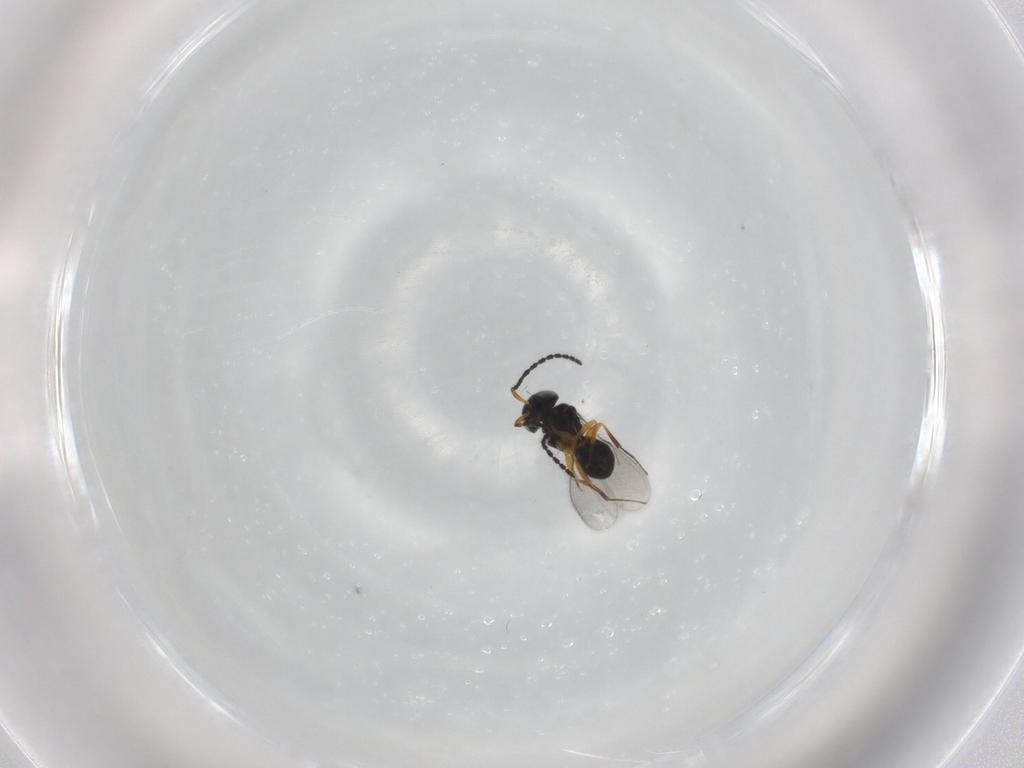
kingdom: Animalia
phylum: Arthropoda
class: Insecta
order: Hymenoptera
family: Scelionidae
